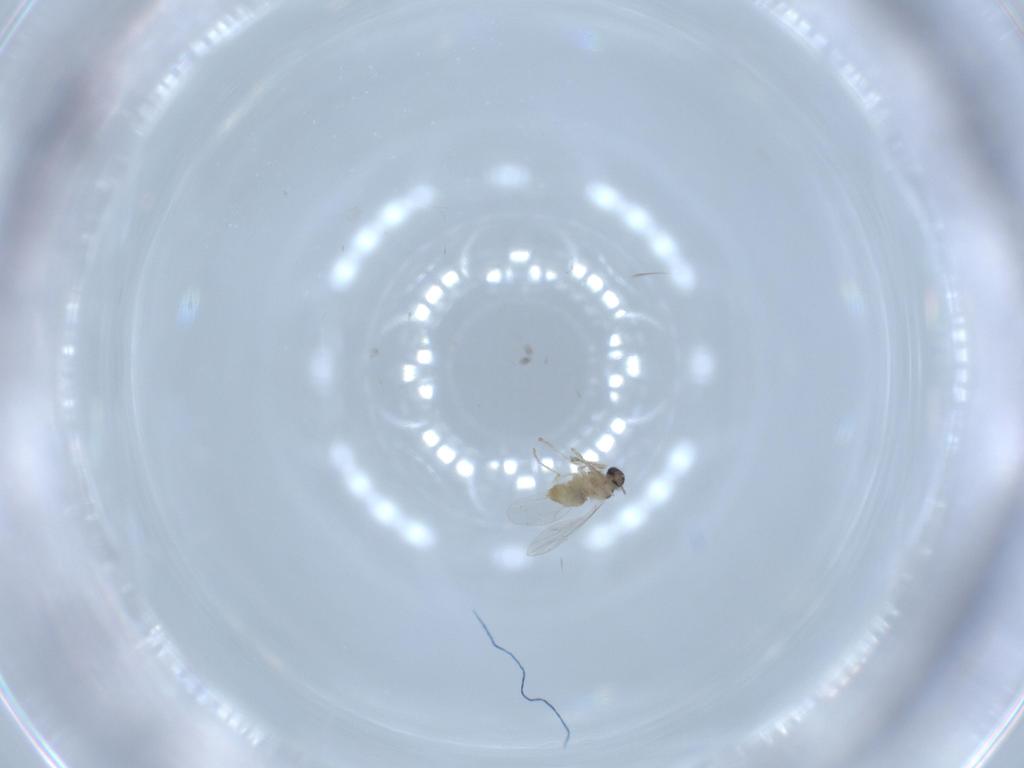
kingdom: Animalia
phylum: Arthropoda
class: Insecta
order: Diptera
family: Cecidomyiidae
